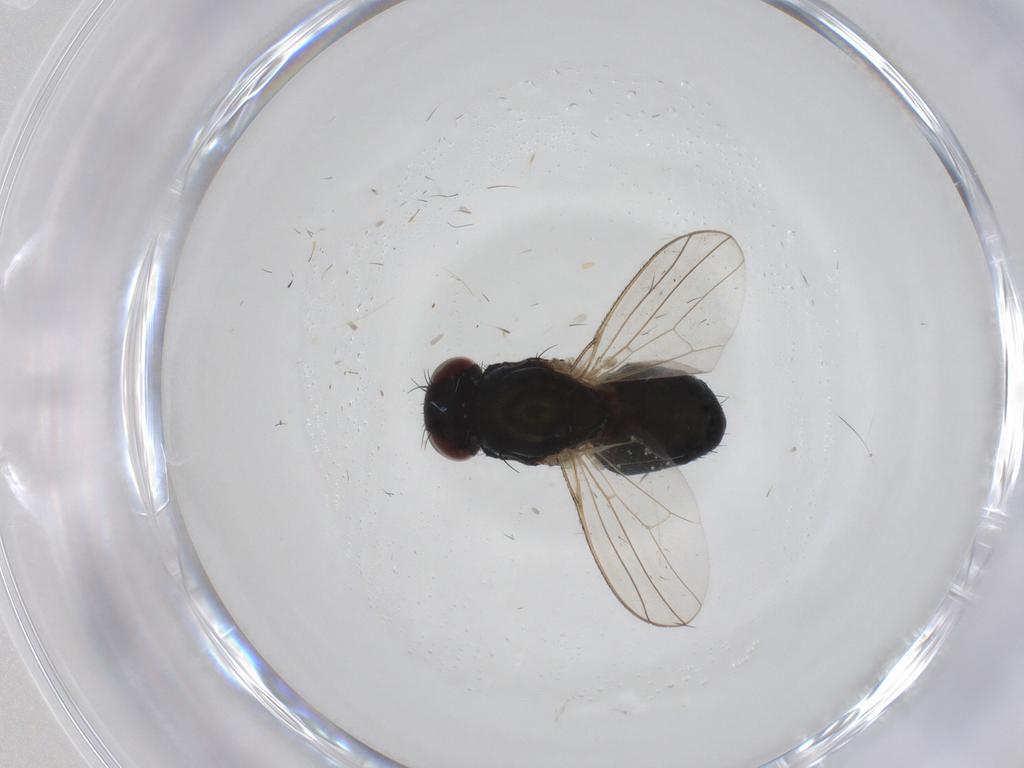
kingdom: Animalia
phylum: Arthropoda
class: Insecta
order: Diptera
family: Carnidae
